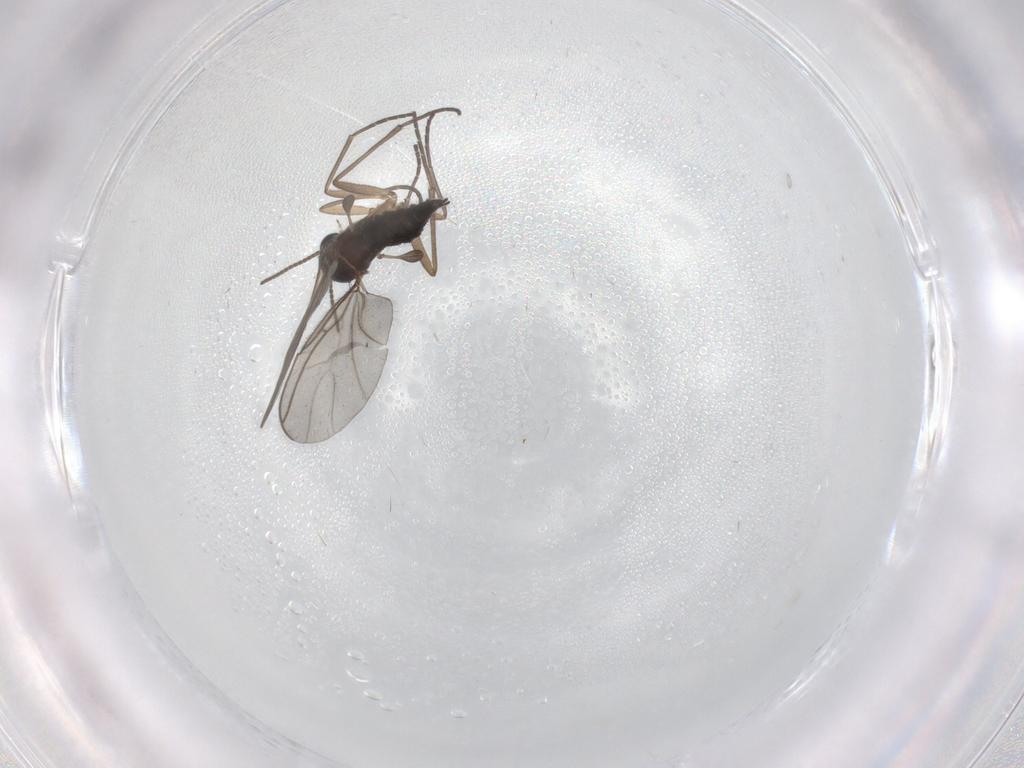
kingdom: Animalia
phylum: Arthropoda
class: Insecta
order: Diptera
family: Sciaridae
